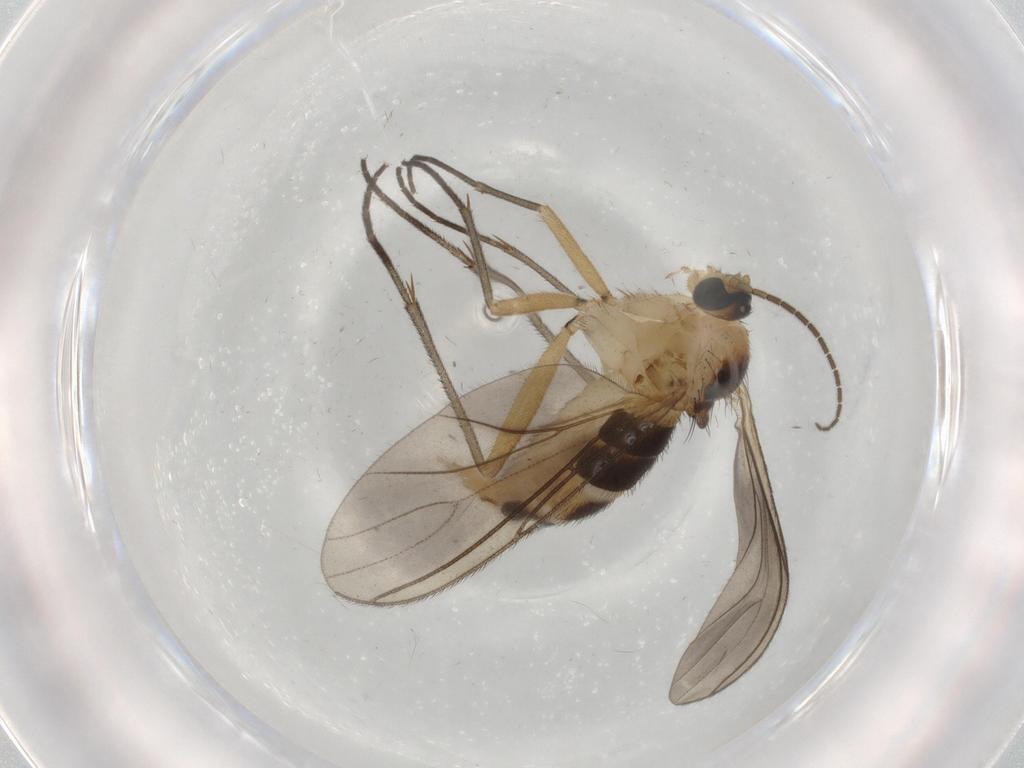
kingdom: Animalia
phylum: Arthropoda
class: Insecta
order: Diptera
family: Sciaridae
